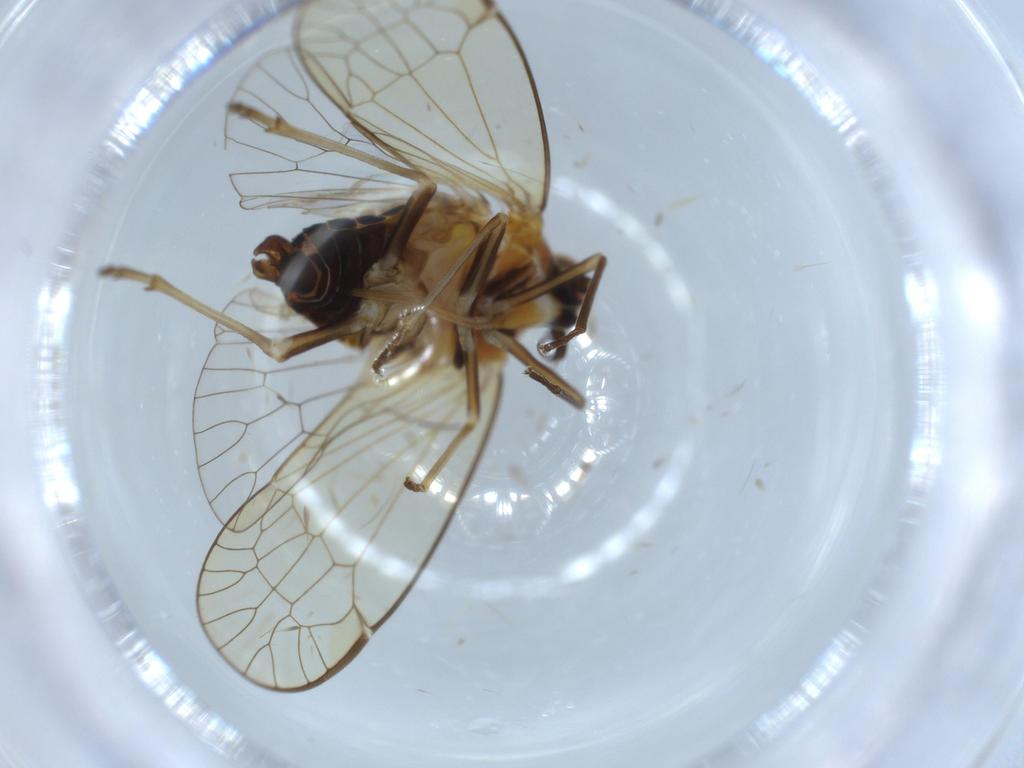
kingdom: Animalia
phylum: Arthropoda
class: Insecta
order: Hemiptera
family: Kinnaridae
